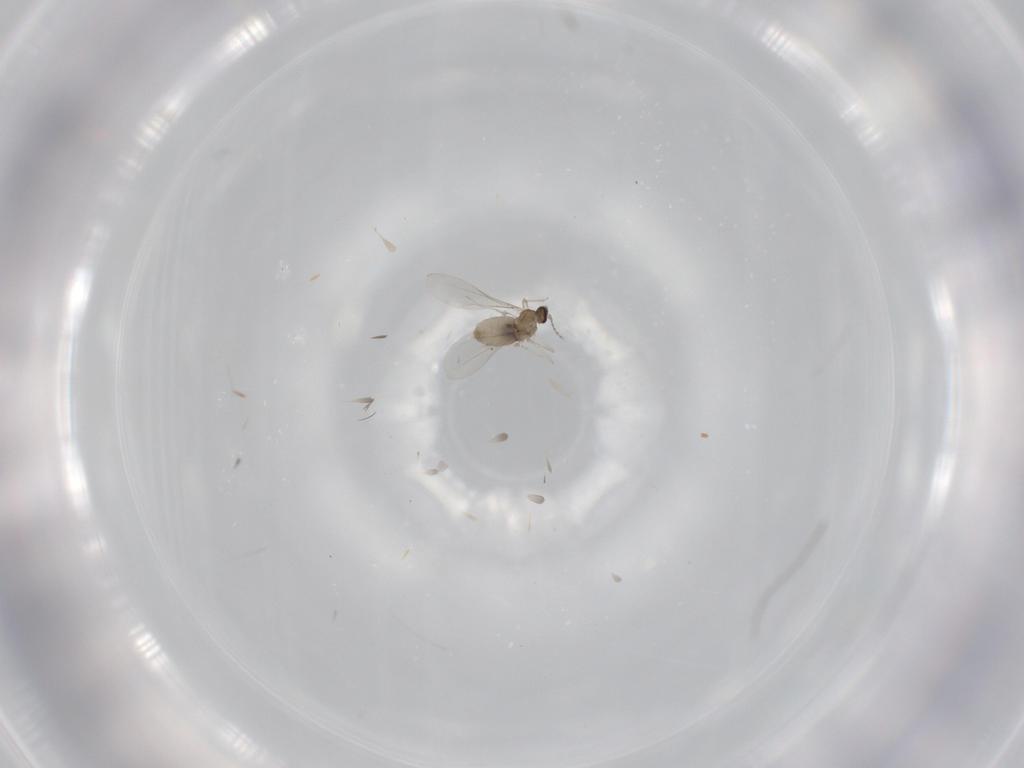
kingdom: Animalia
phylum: Arthropoda
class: Insecta
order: Diptera
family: Cecidomyiidae
